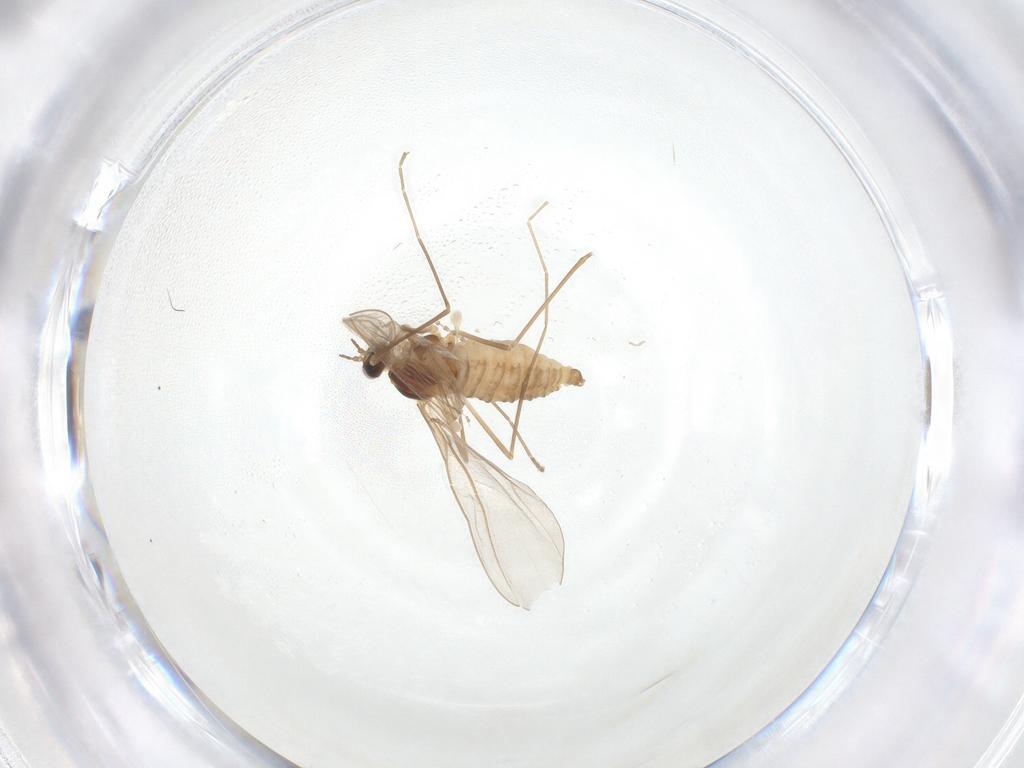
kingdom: Animalia
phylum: Arthropoda
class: Insecta
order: Diptera
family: Cecidomyiidae
